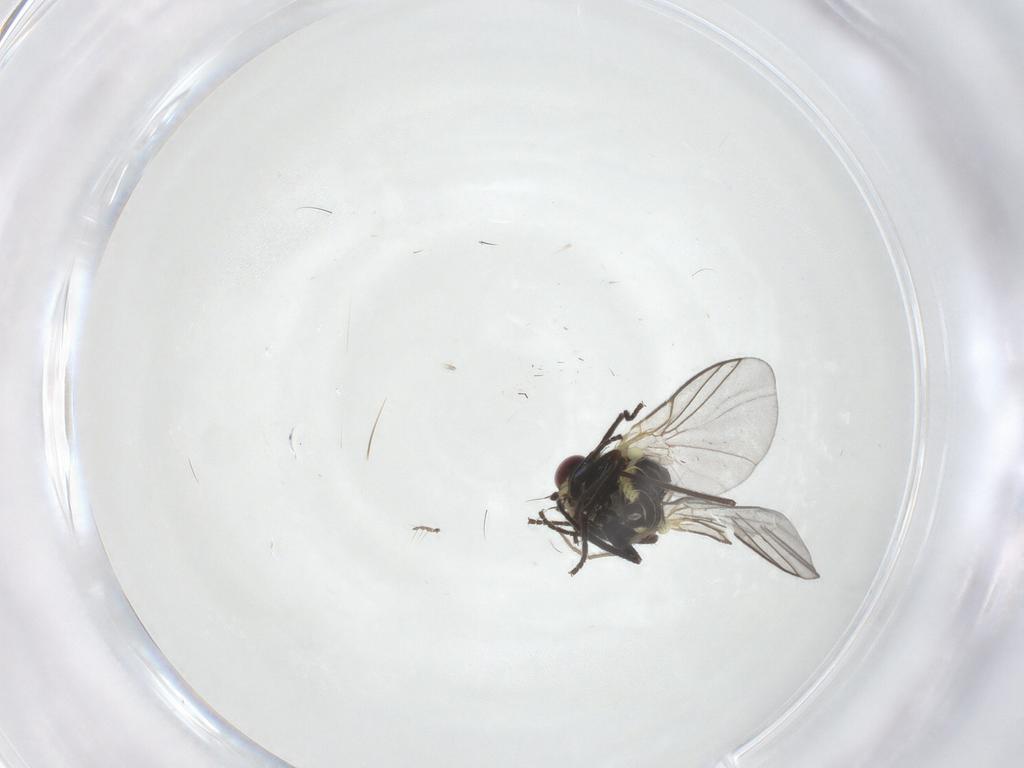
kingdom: Animalia
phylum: Arthropoda
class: Insecta
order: Diptera
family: Chironomidae
